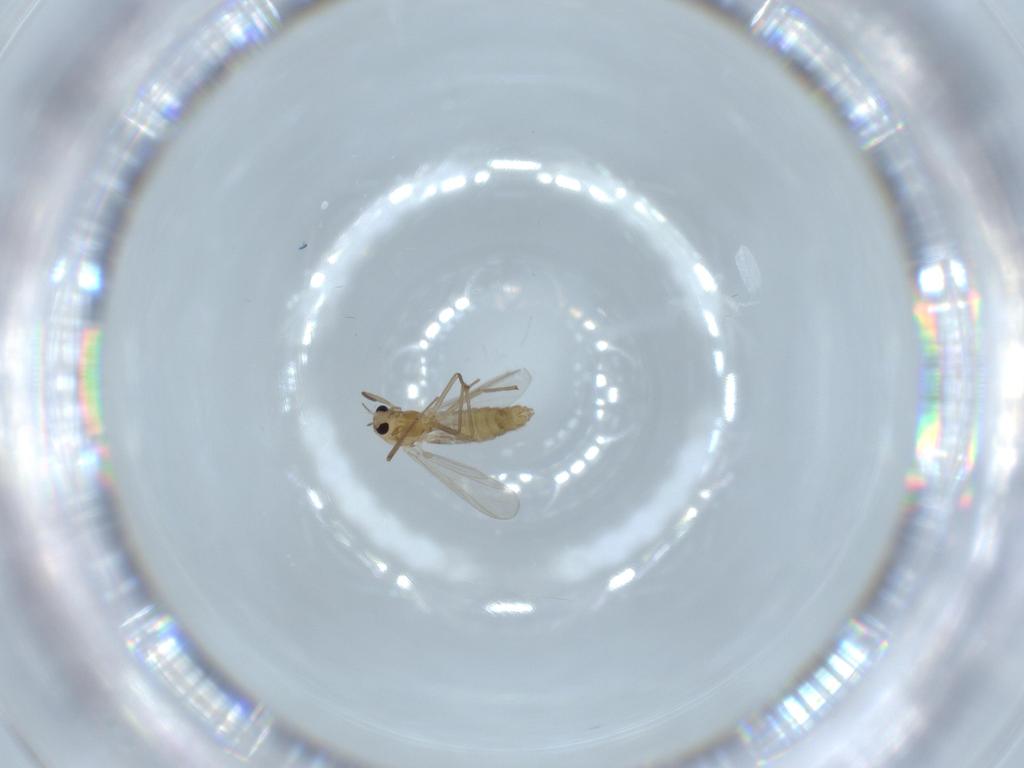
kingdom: Animalia
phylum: Arthropoda
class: Insecta
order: Diptera
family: Chironomidae
